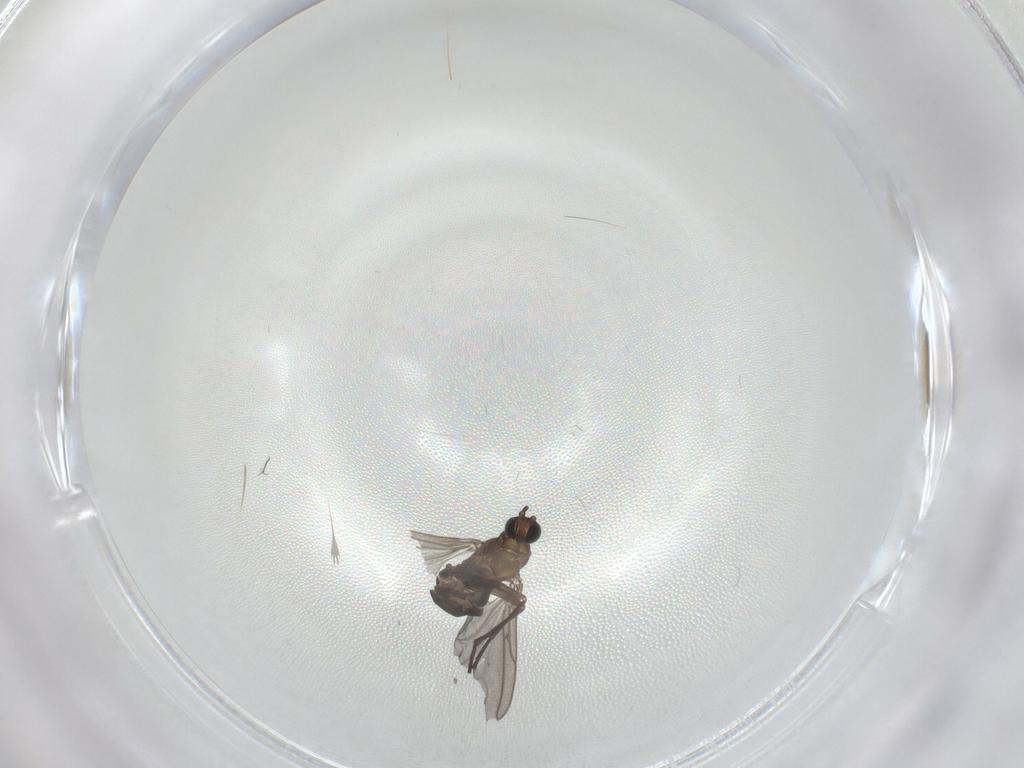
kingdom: Animalia
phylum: Arthropoda
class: Insecta
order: Diptera
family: Sciaridae
